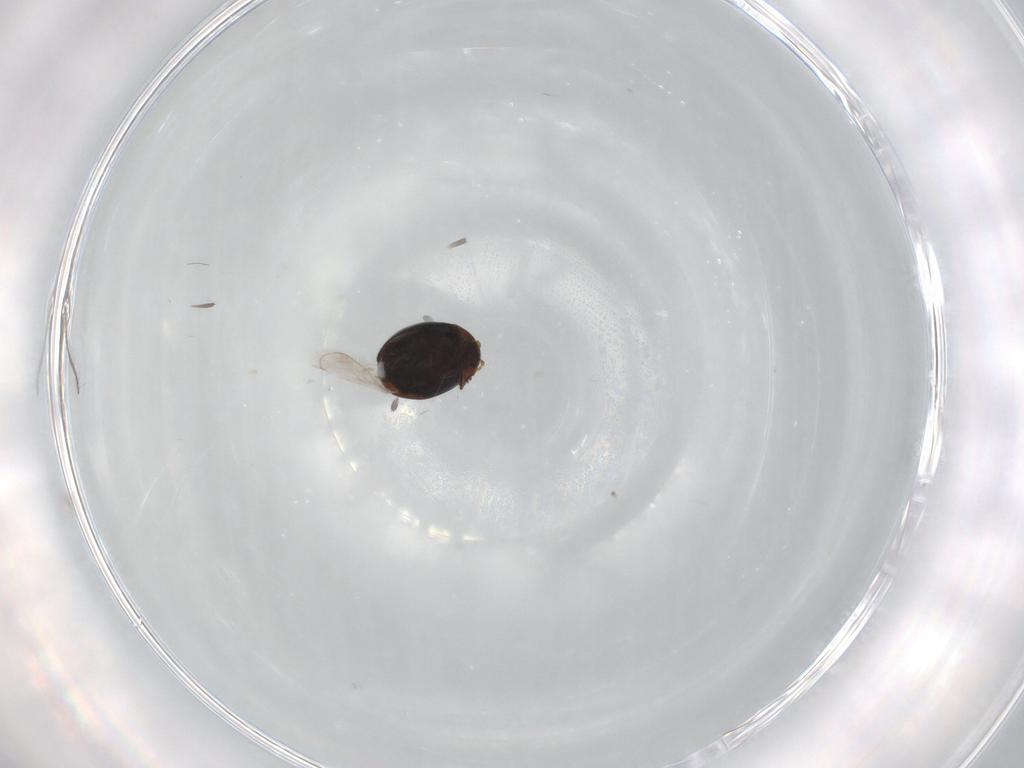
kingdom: Animalia
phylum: Arthropoda
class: Insecta
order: Coleoptera
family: Corylophidae
